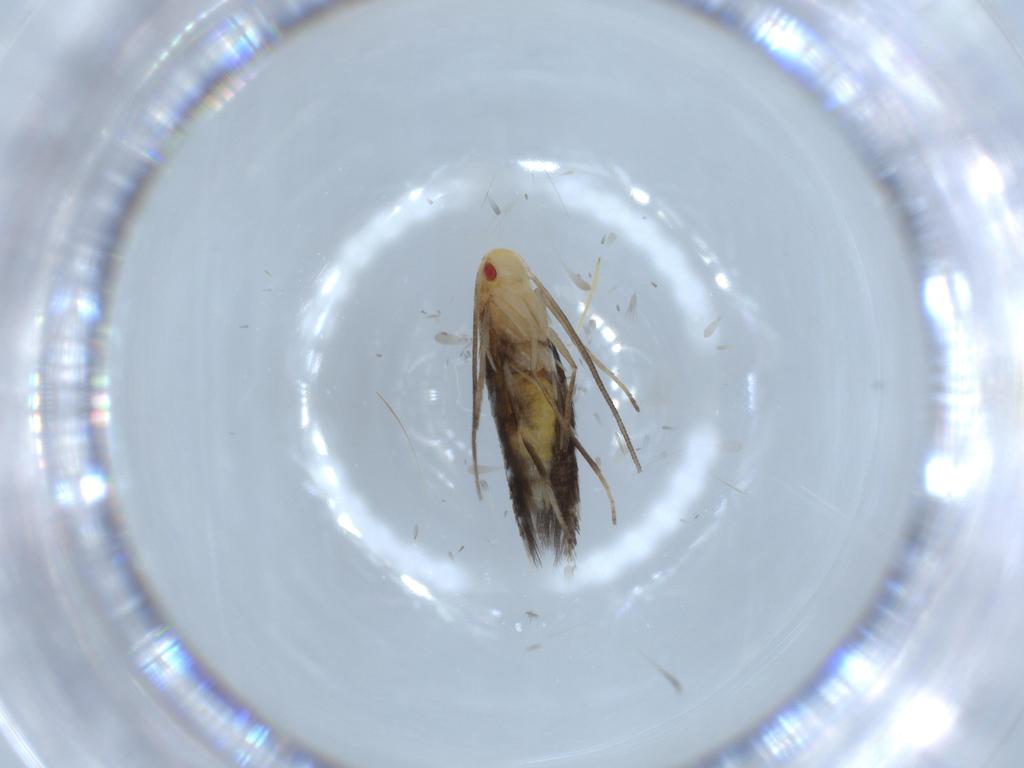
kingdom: Animalia
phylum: Arthropoda
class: Insecta
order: Lepidoptera
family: Cosmopterigidae
